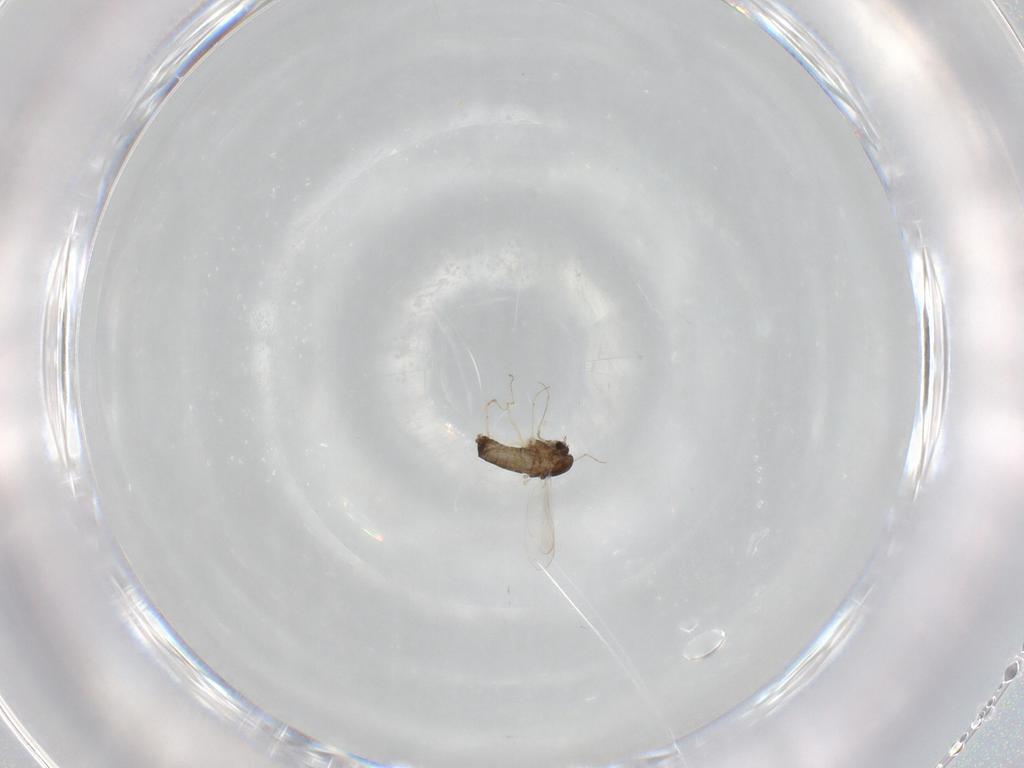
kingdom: Animalia
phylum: Arthropoda
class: Insecta
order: Diptera
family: Chironomidae
